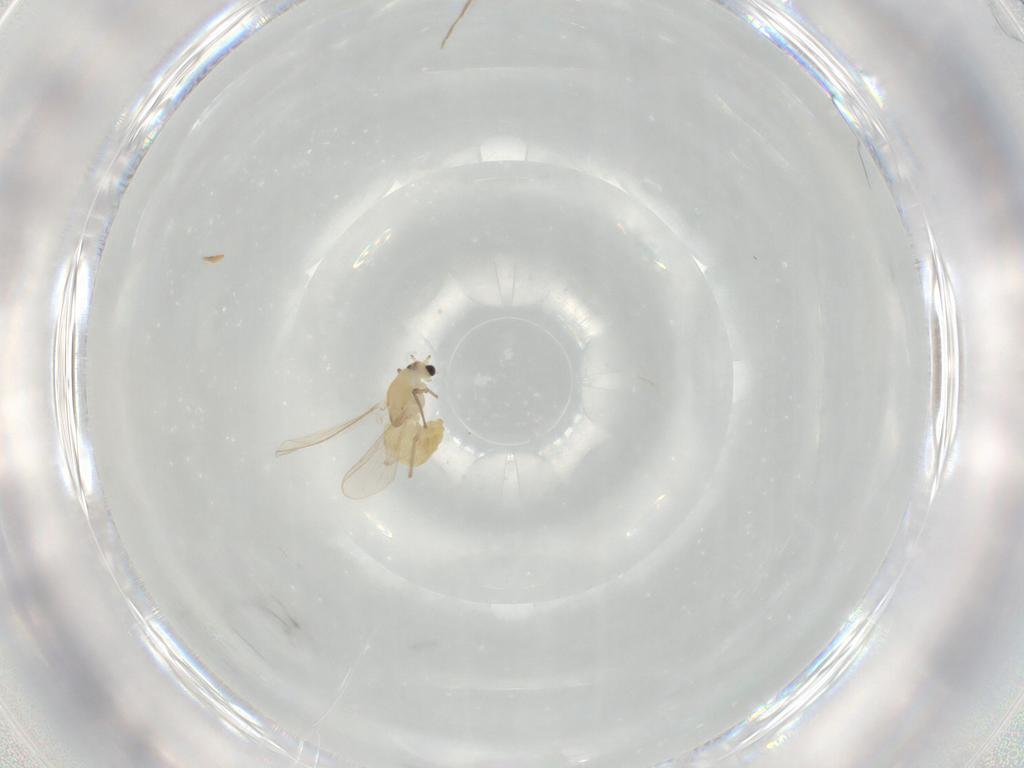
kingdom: Animalia
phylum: Arthropoda
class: Insecta
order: Diptera
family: Chironomidae
